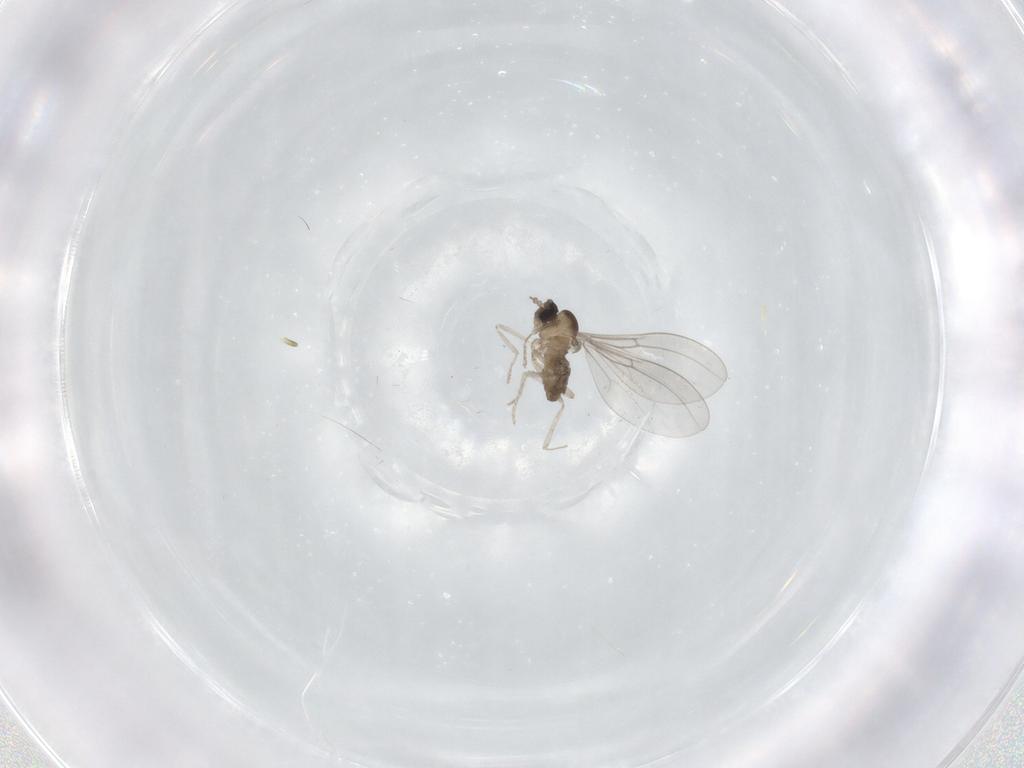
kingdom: Animalia
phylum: Arthropoda
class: Insecta
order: Diptera
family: Cecidomyiidae
